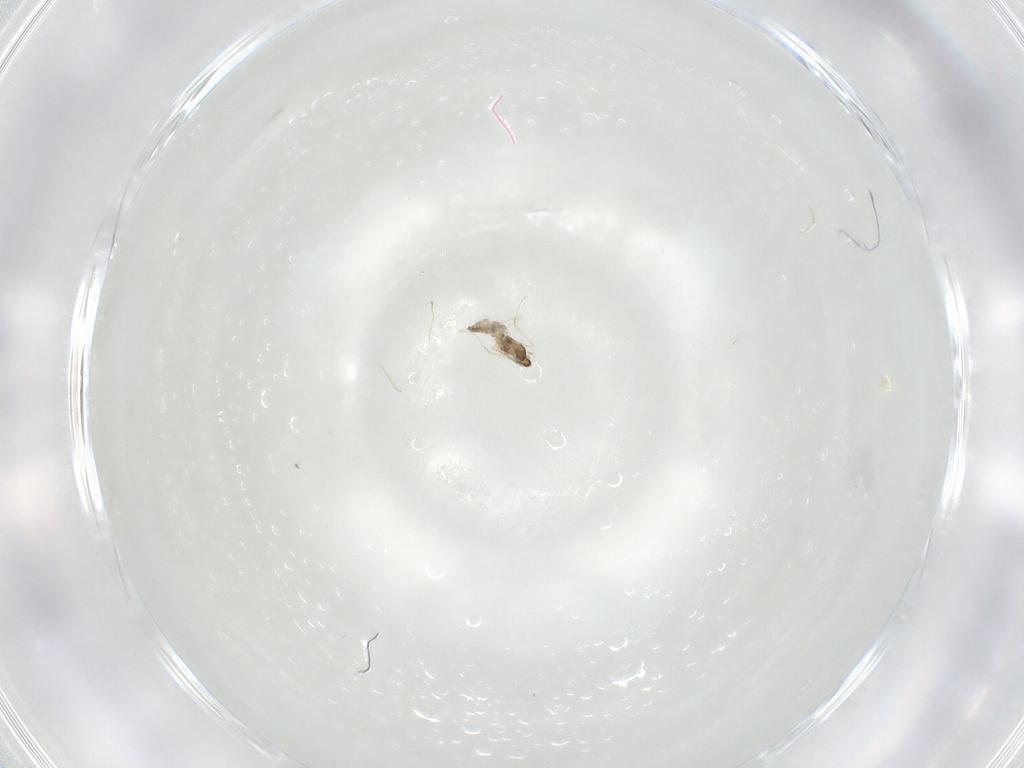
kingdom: Animalia
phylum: Arthropoda
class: Insecta
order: Diptera
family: Cecidomyiidae
